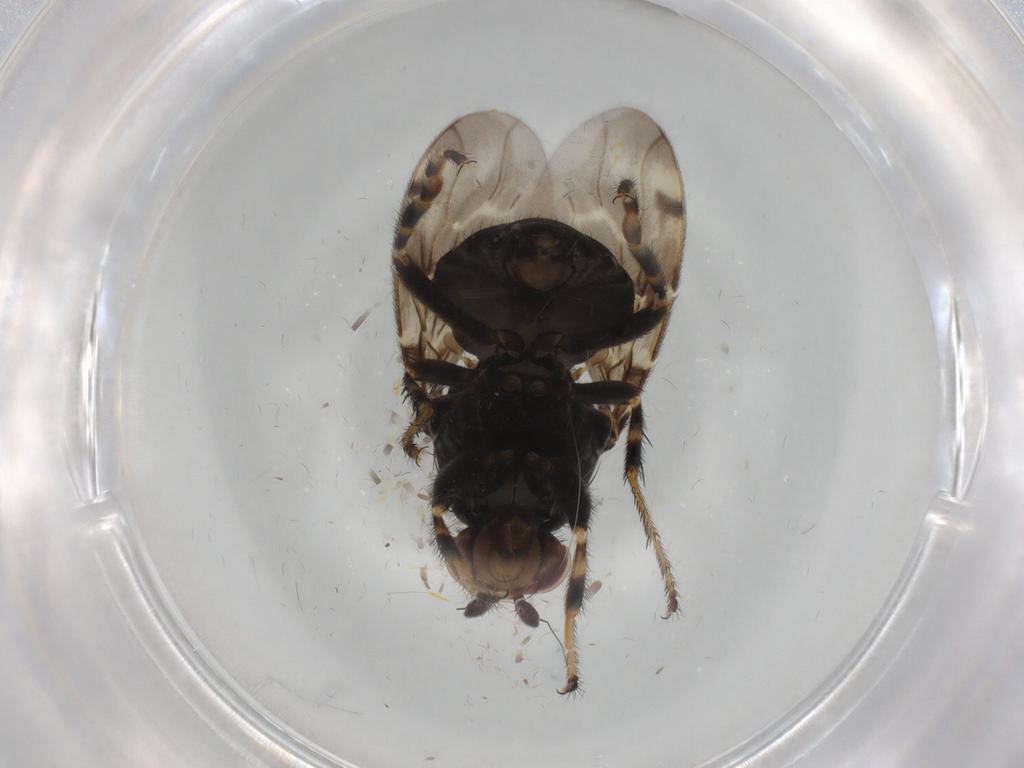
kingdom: Animalia
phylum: Arthropoda
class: Insecta
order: Diptera
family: Sphaeroceridae
